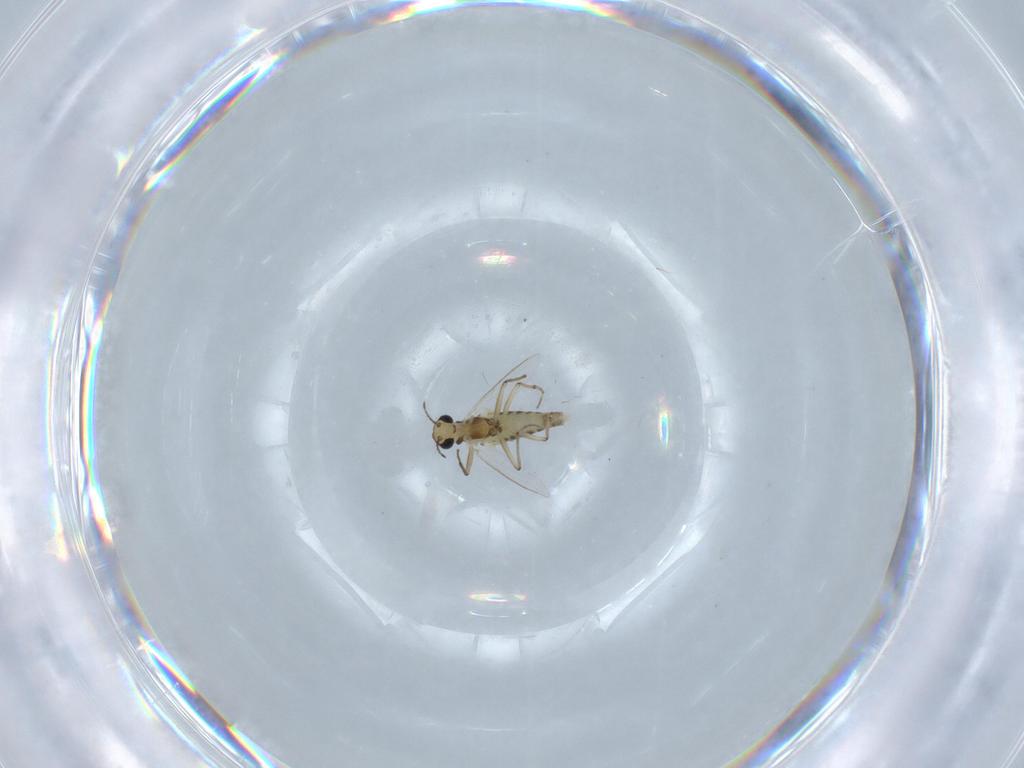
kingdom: Animalia
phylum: Arthropoda
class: Insecta
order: Diptera
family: Chironomidae
